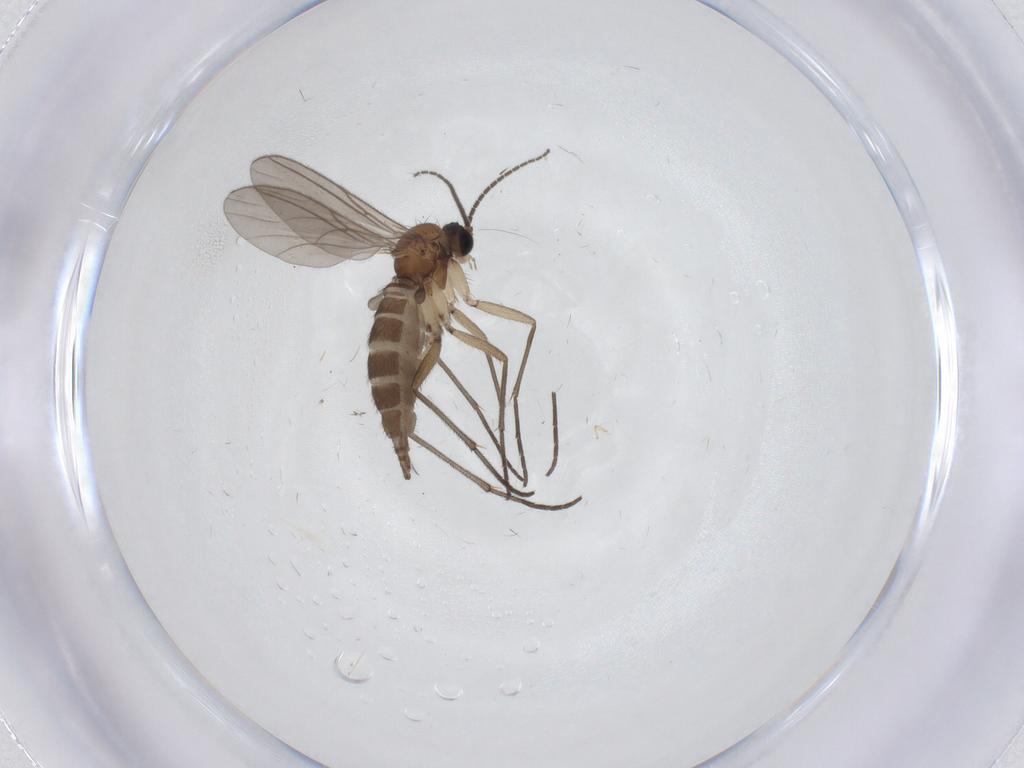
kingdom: Animalia
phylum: Arthropoda
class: Insecta
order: Diptera
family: Sciaridae
